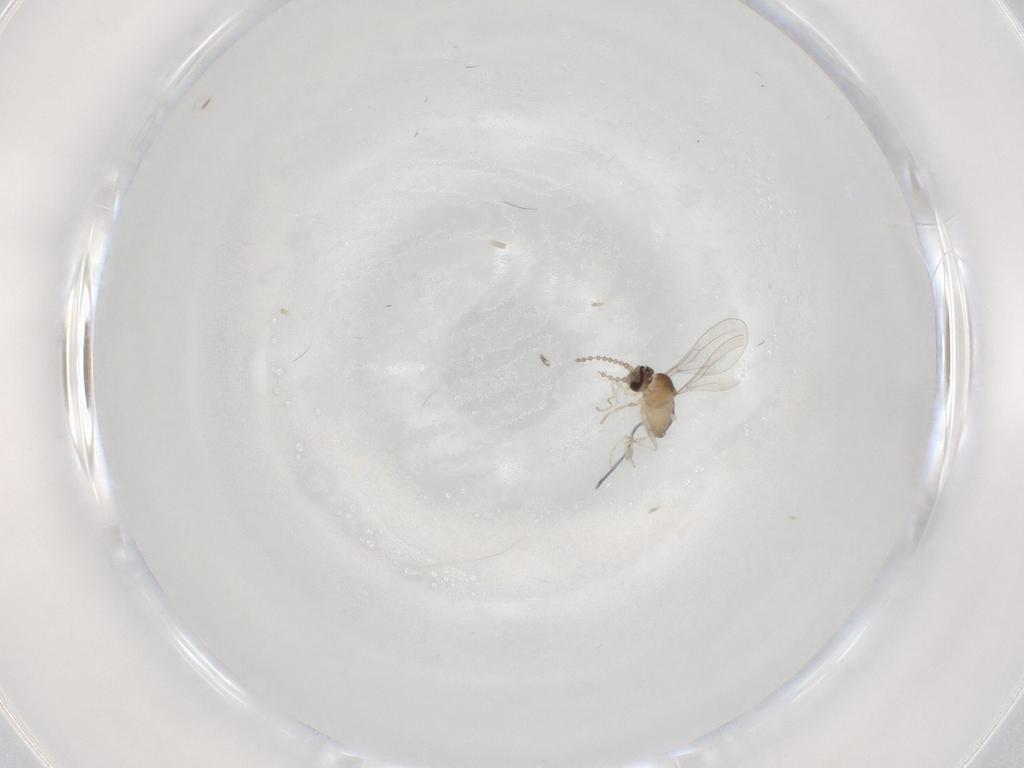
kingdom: Animalia
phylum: Arthropoda
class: Insecta
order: Diptera
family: Cecidomyiidae
